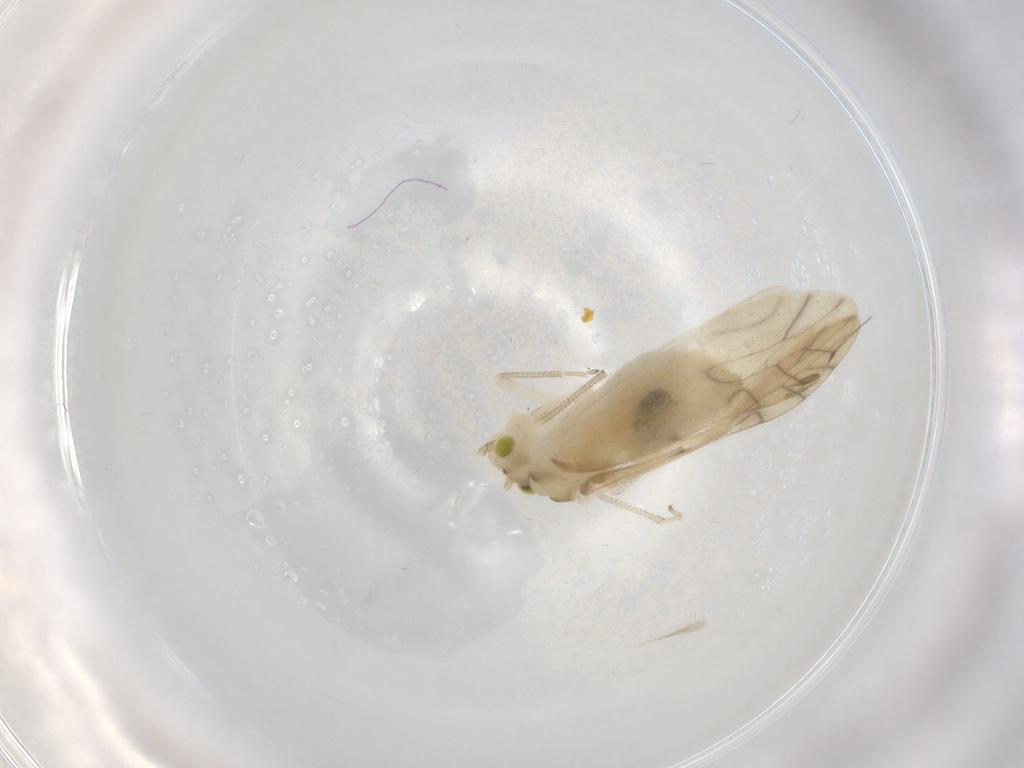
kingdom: Animalia
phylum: Arthropoda
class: Insecta
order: Psocodea
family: Caeciliusidae
